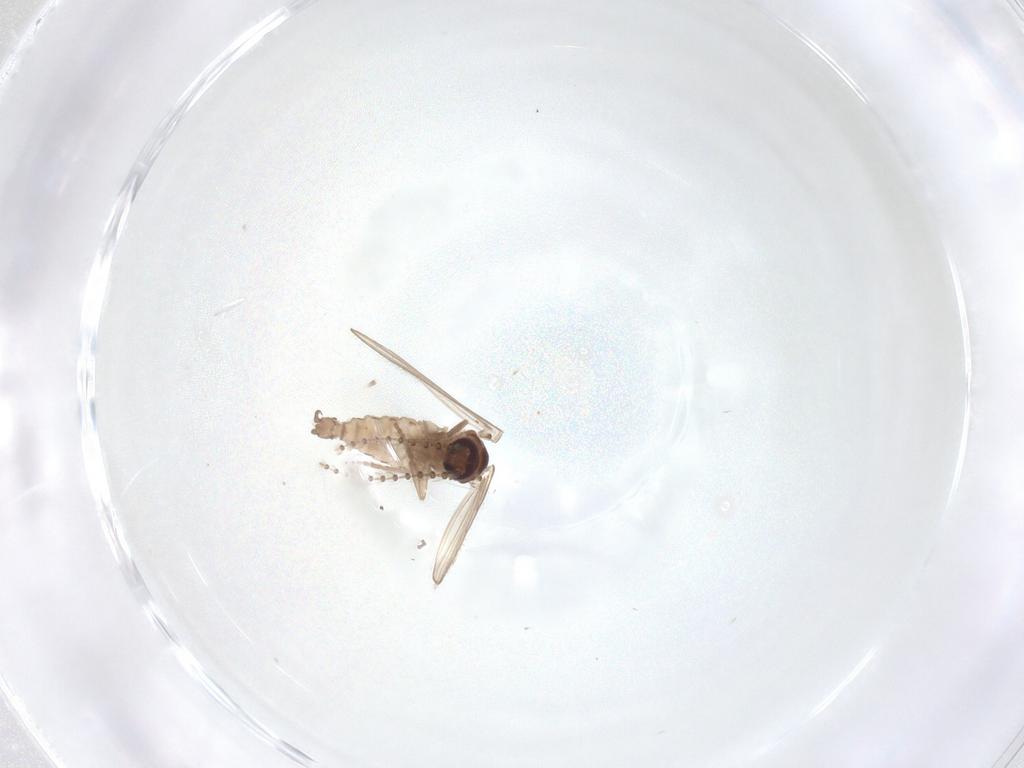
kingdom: Animalia
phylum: Arthropoda
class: Insecta
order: Diptera
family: Psychodidae
